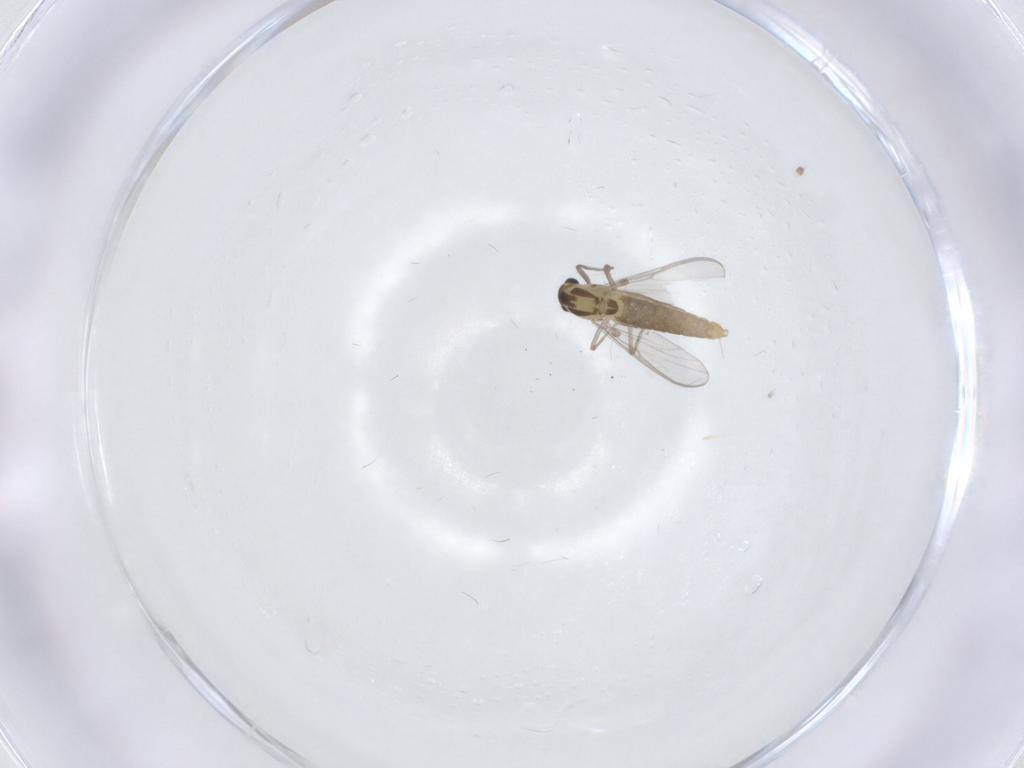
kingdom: Animalia
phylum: Arthropoda
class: Insecta
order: Diptera
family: Chironomidae
